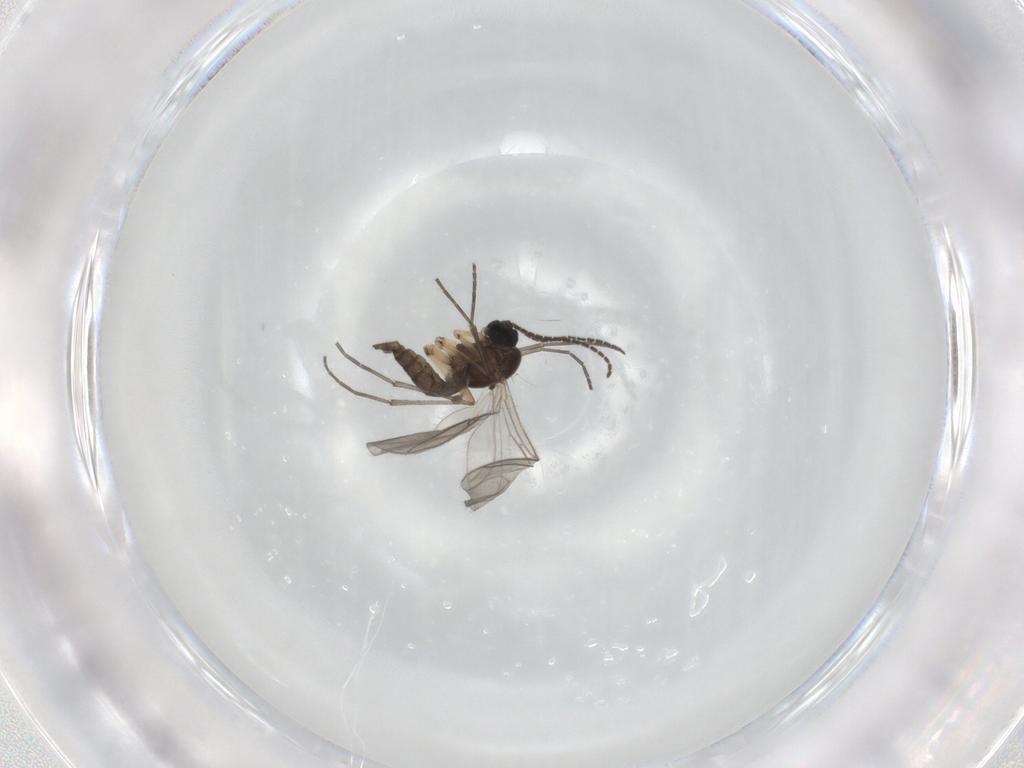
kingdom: Animalia
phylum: Arthropoda
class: Insecta
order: Diptera
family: Sciaridae
